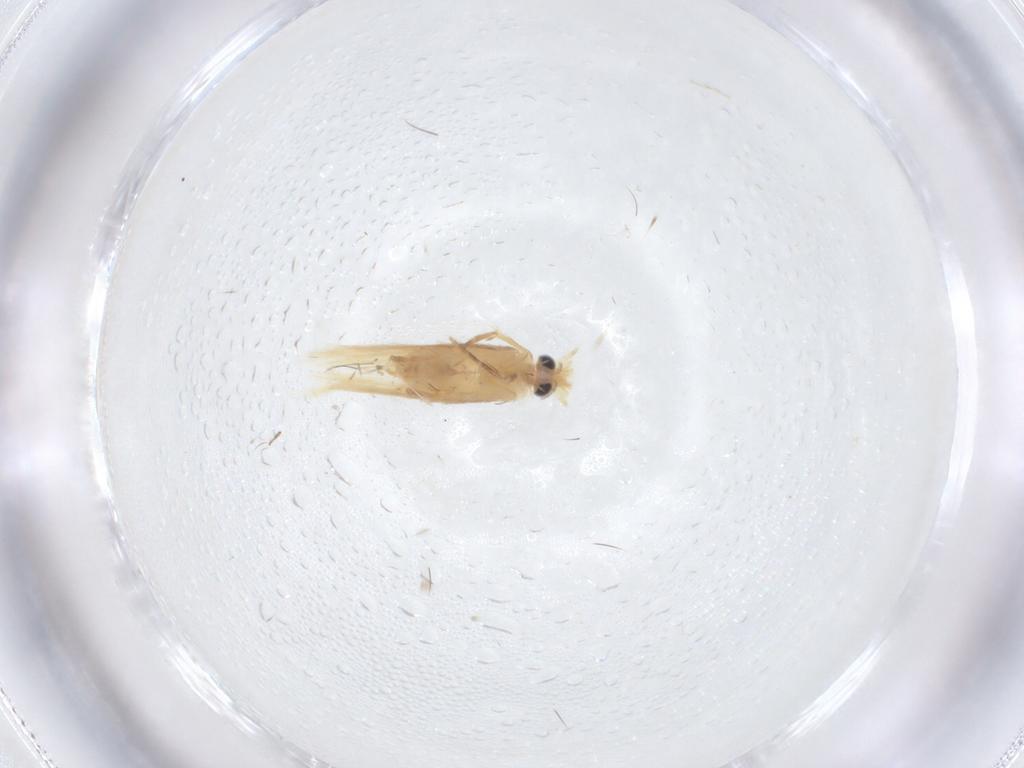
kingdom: Animalia
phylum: Arthropoda
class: Insecta
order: Lepidoptera
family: Nepticulidae
